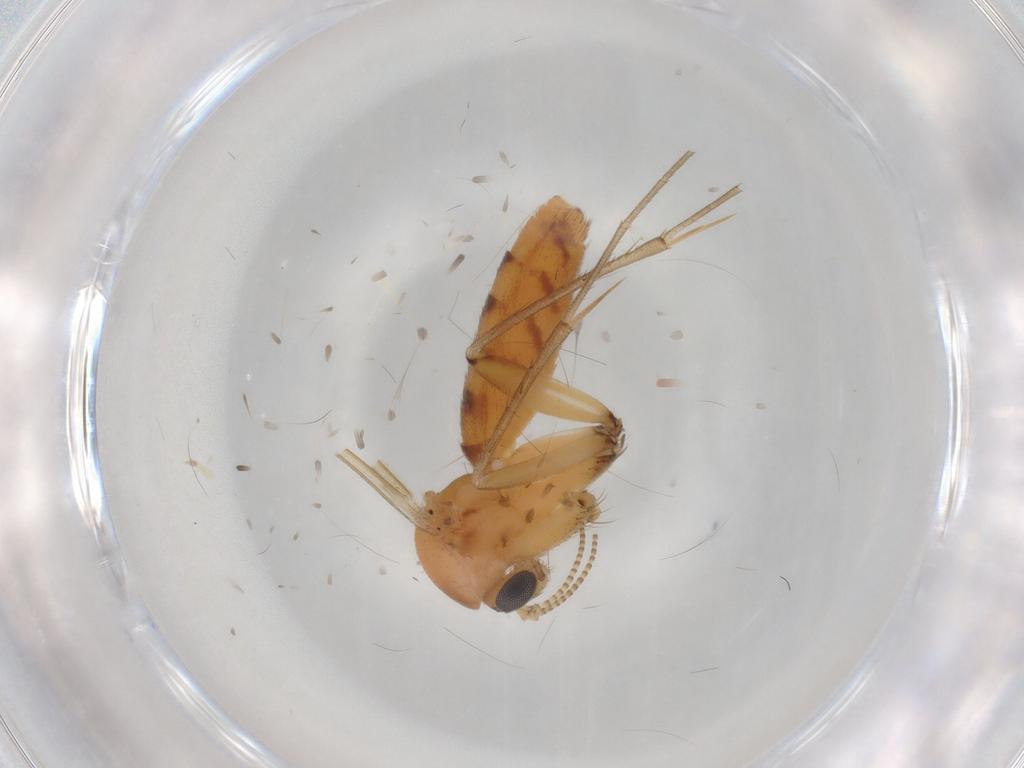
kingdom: Animalia
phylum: Arthropoda
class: Insecta
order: Diptera
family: Mycetophilidae
